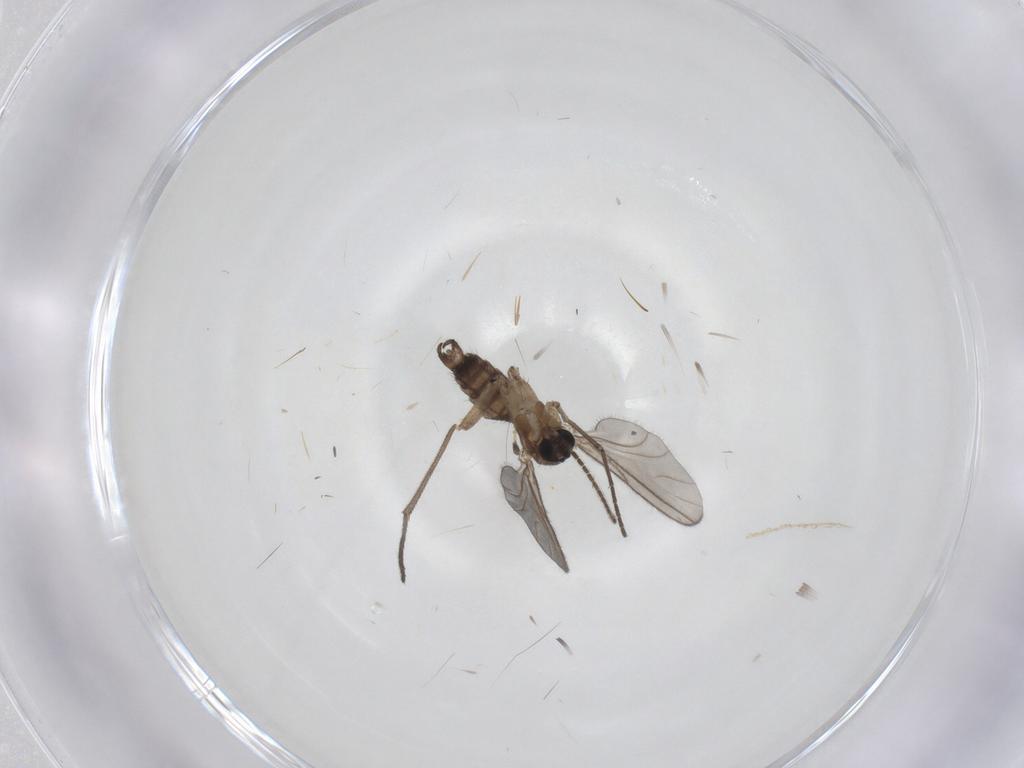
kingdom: Animalia
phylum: Arthropoda
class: Insecta
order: Diptera
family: Sciaridae
